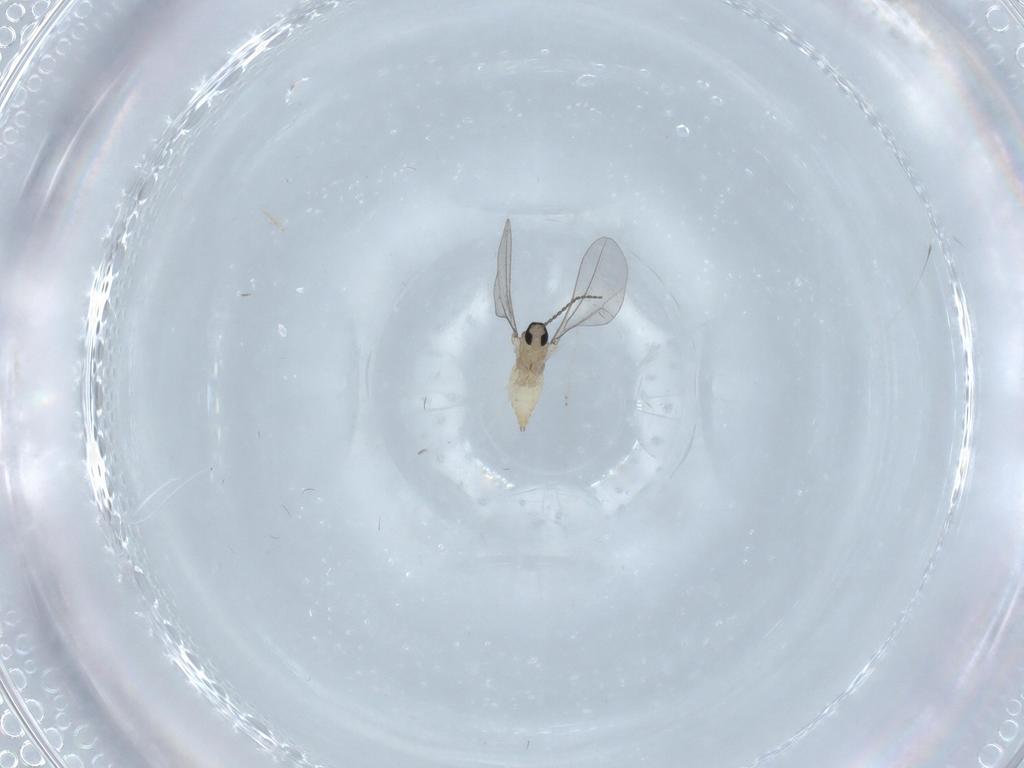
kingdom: Animalia
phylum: Arthropoda
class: Insecta
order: Diptera
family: Cecidomyiidae
